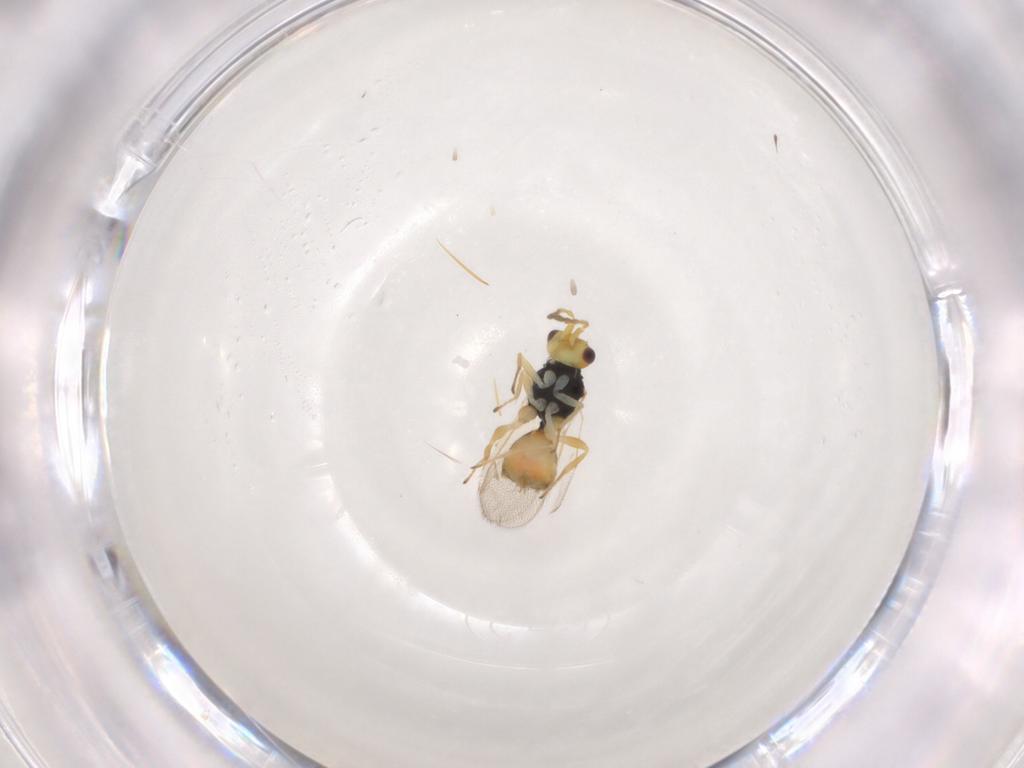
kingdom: Animalia
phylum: Arthropoda
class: Insecta
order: Hymenoptera
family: Braconidae
